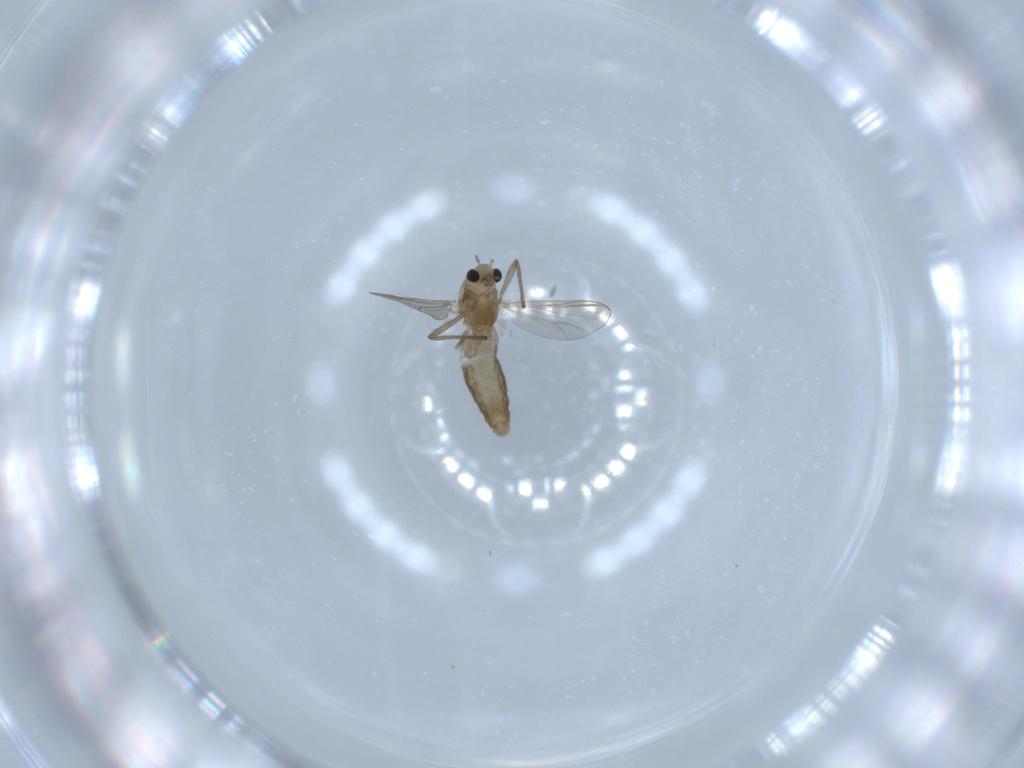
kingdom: Animalia
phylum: Arthropoda
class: Insecta
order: Diptera
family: Chironomidae
